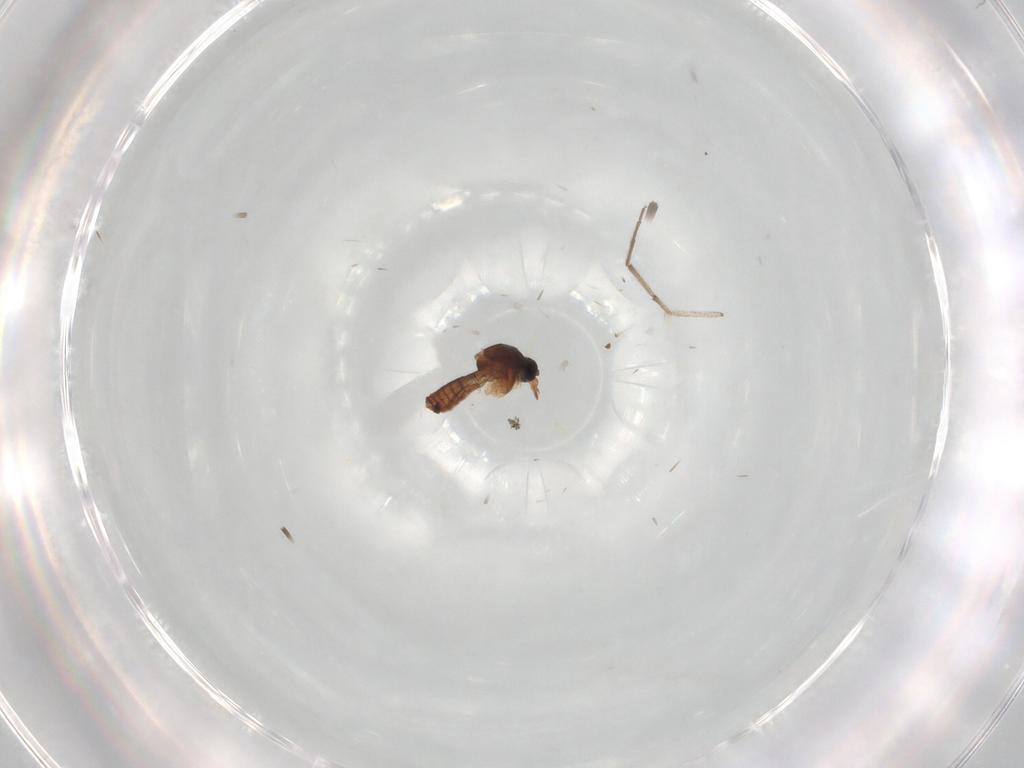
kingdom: Animalia
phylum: Arthropoda
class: Insecta
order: Diptera
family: Chironomidae
